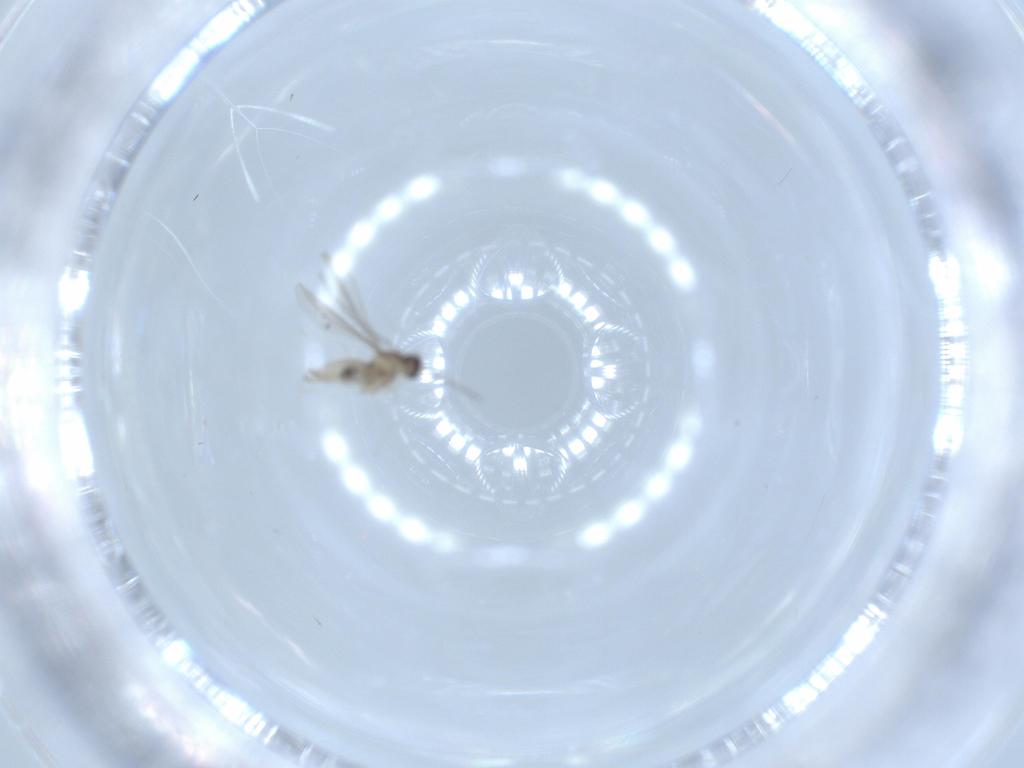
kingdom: Animalia
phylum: Arthropoda
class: Insecta
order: Diptera
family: Cecidomyiidae
